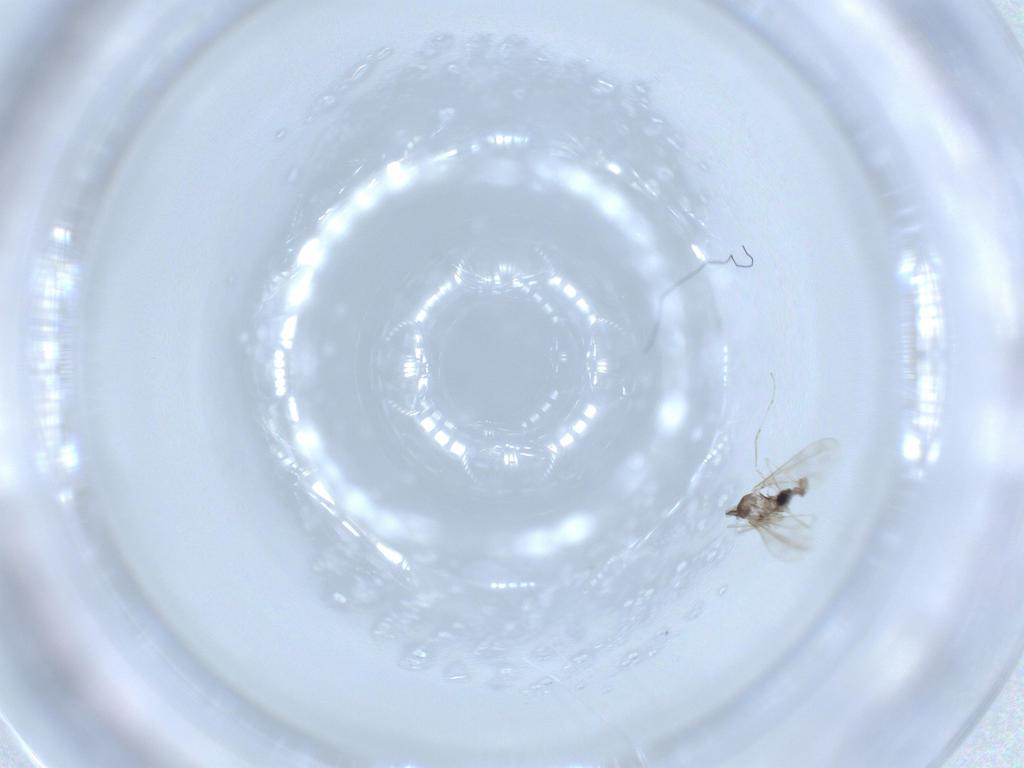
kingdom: Animalia
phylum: Arthropoda
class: Insecta
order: Diptera
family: Cecidomyiidae
